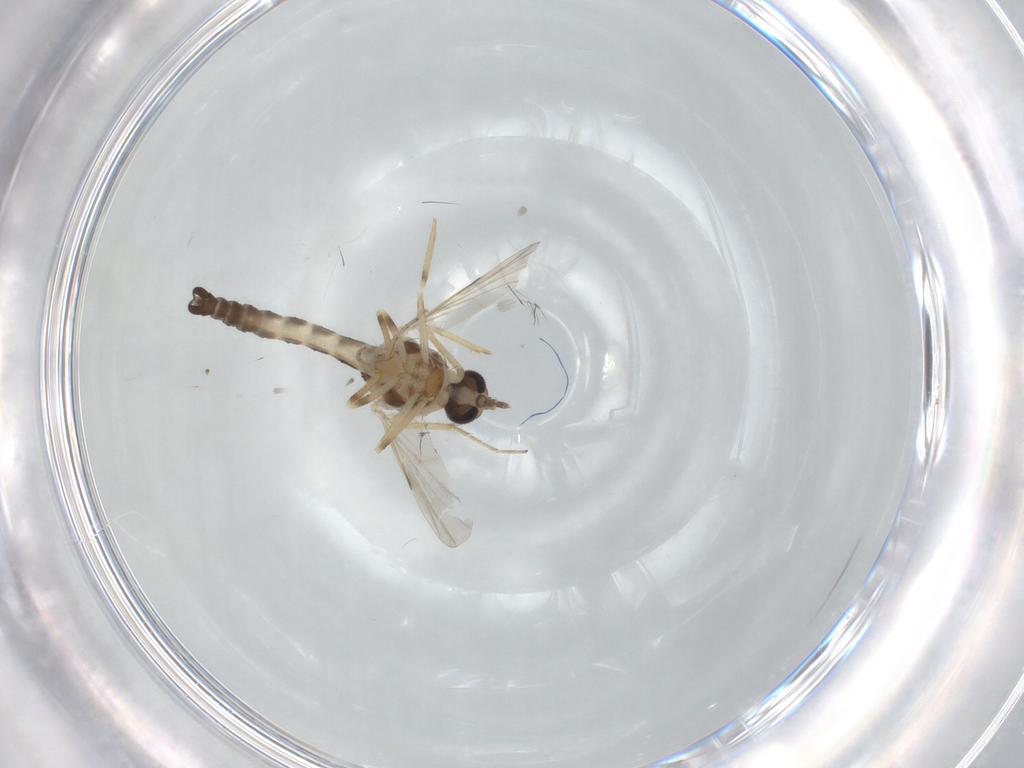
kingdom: Animalia
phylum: Arthropoda
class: Insecta
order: Diptera
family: Ceratopogonidae
